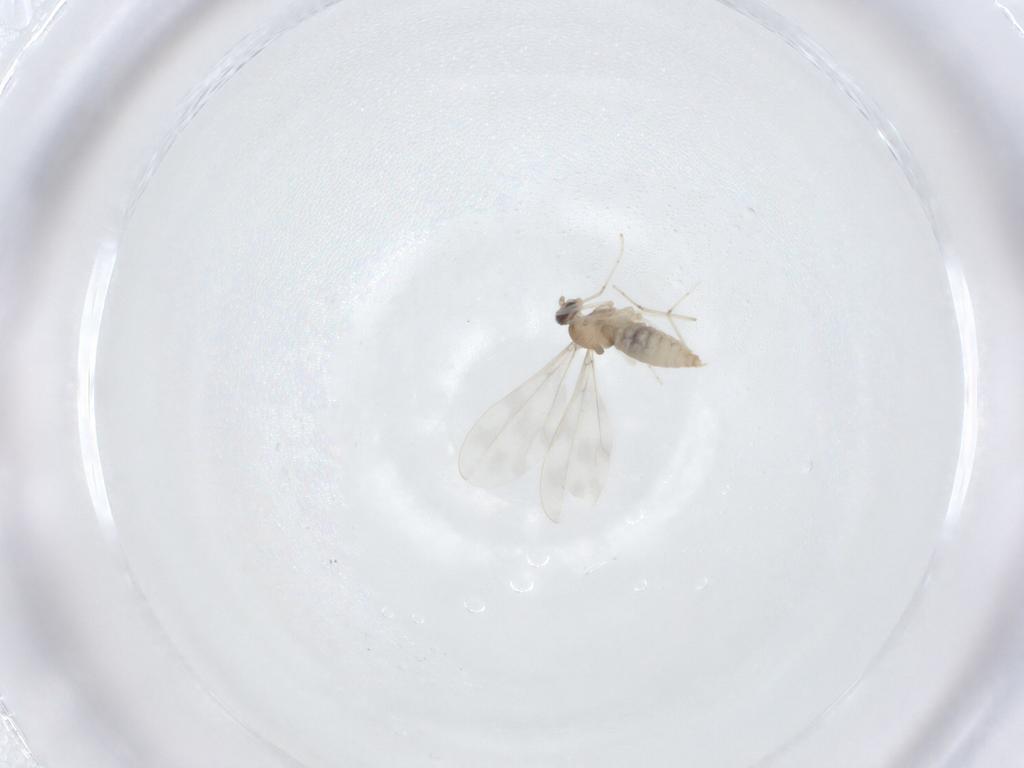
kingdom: Animalia
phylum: Arthropoda
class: Insecta
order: Diptera
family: Cecidomyiidae
